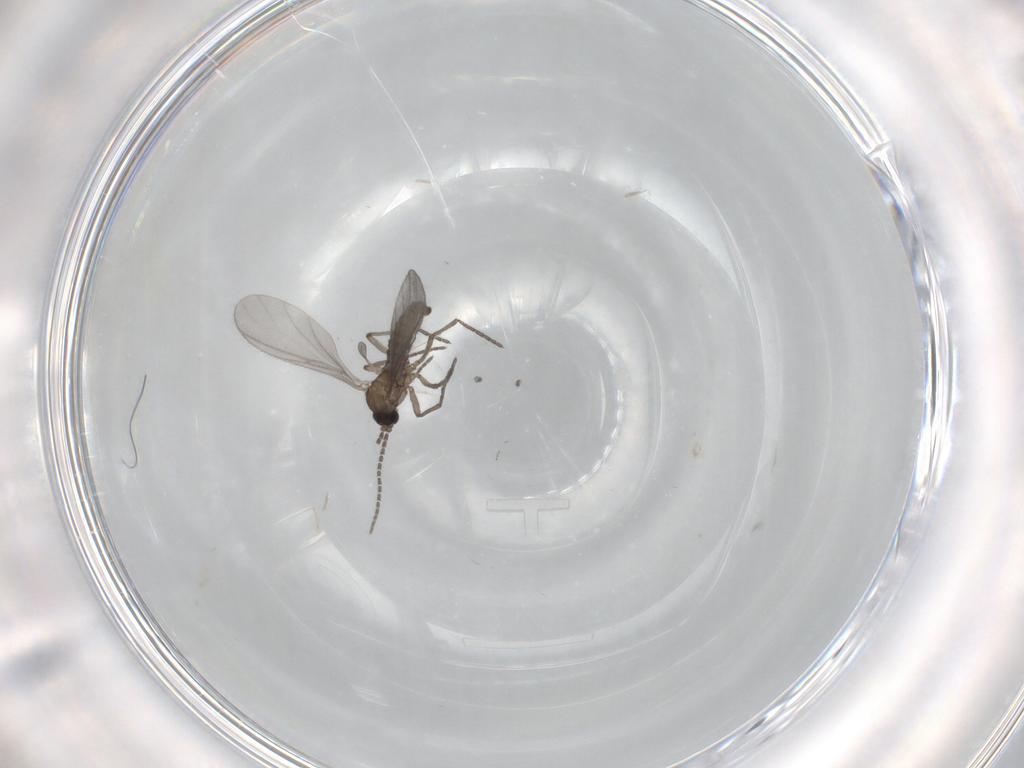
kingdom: Animalia
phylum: Arthropoda
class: Insecta
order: Diptera
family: Sciaridae
